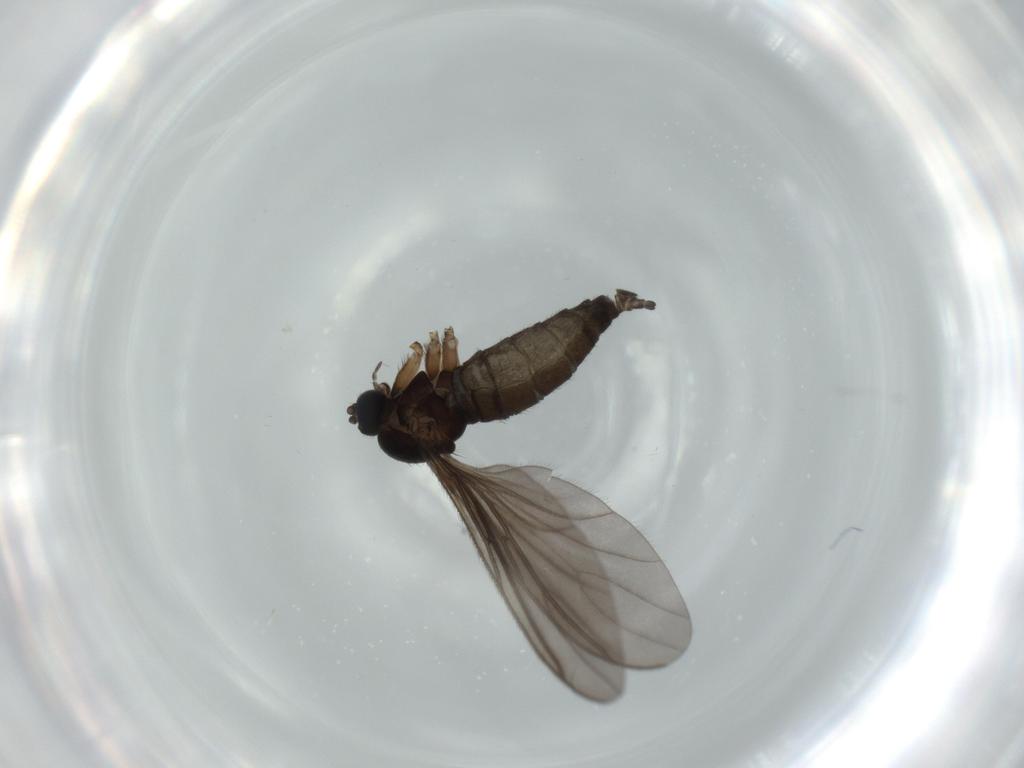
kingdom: Animalia
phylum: Arthropoda
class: Insecta
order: Diptera
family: Sciaridae
